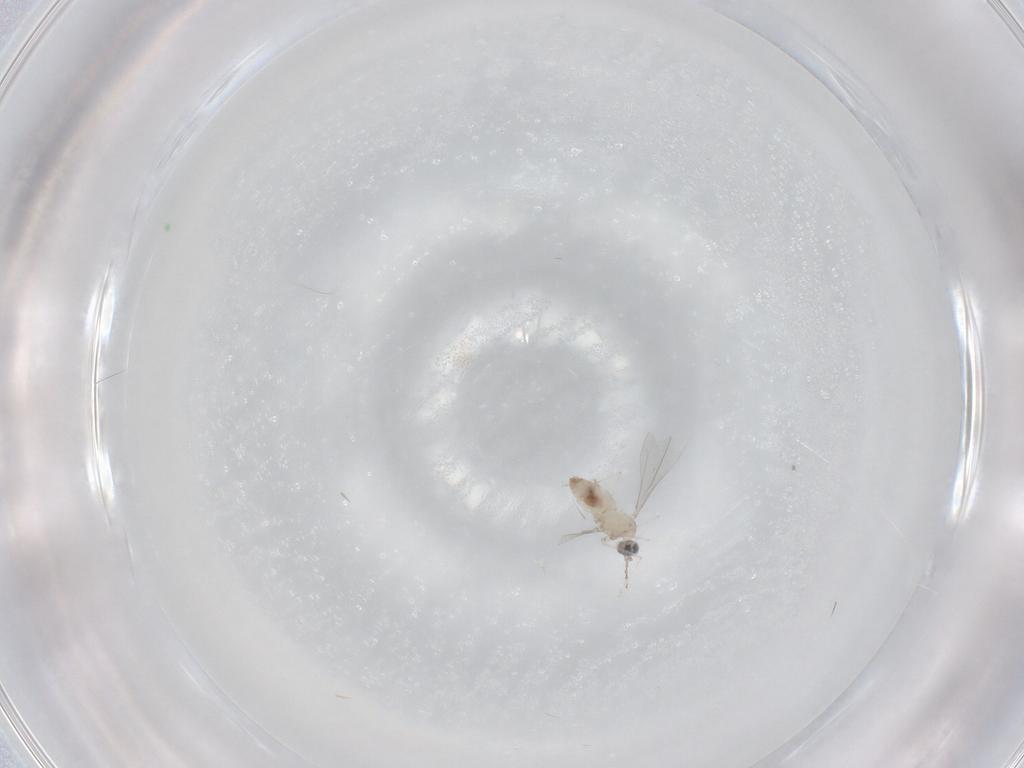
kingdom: Animalia
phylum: Arthropoda
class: Insecta
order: Diptera
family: Cecidomyiidae
